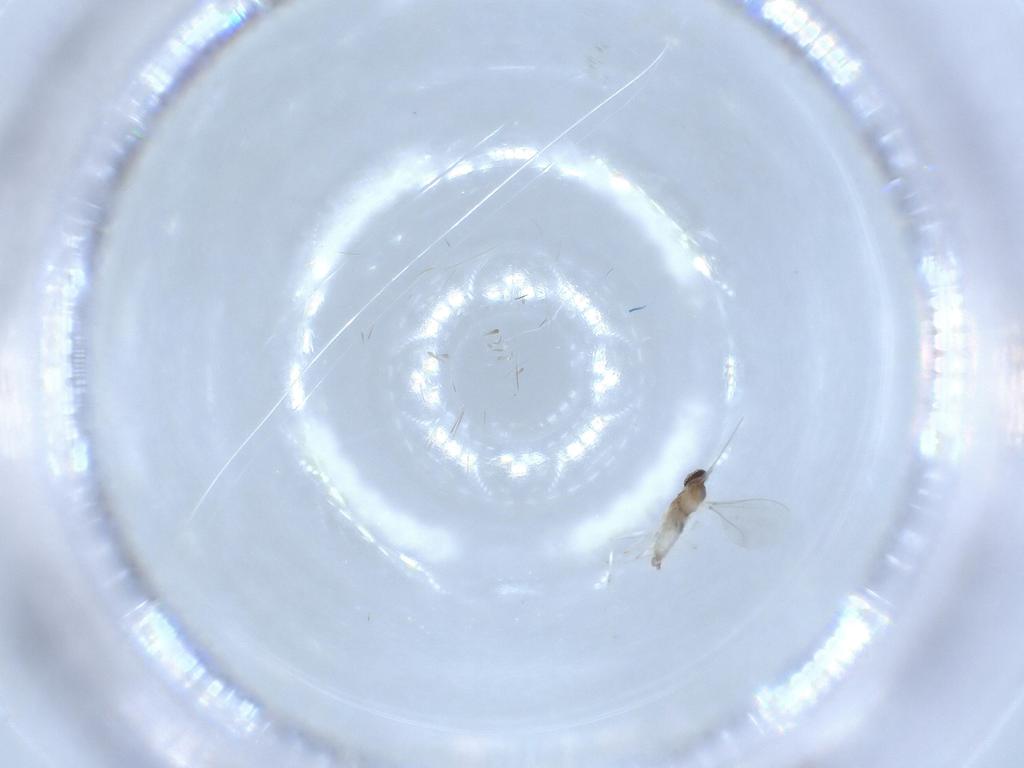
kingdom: Animalia
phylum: Arthropoda
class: Insecta
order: Diptera
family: Cecidomyiidae
